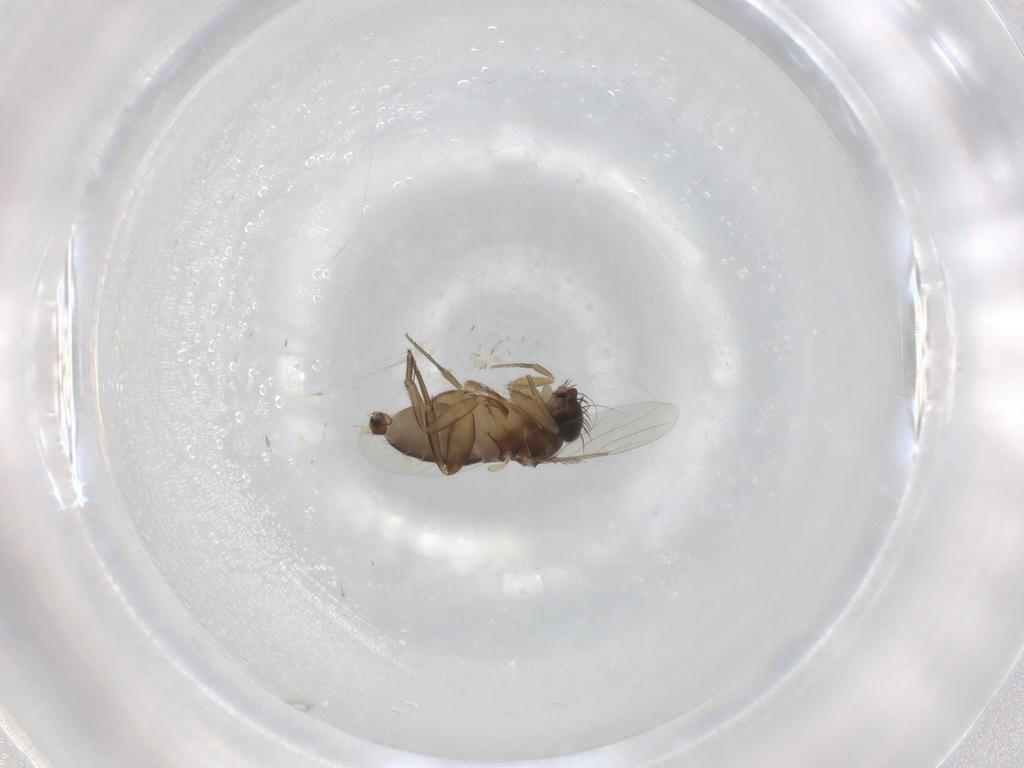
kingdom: Animalia
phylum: Arthropoda
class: Insecta
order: Diptera
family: Phoridae
